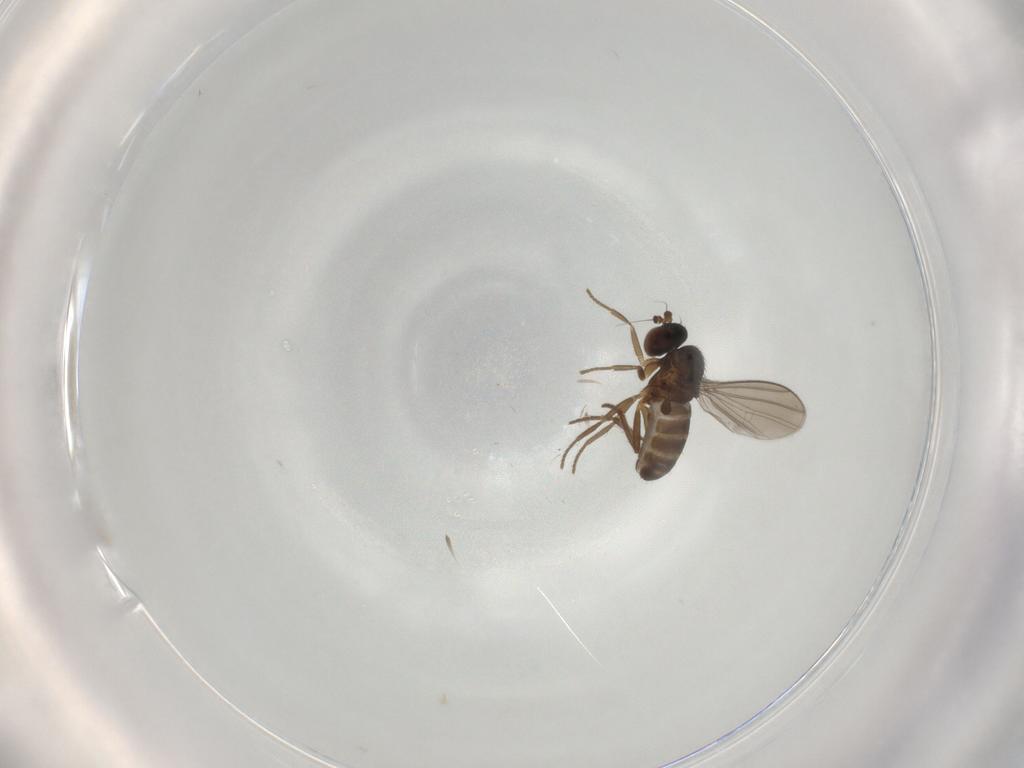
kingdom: Animalia
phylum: Arthropoda
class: Insecta
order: Diptera
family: Dolichopodidae
